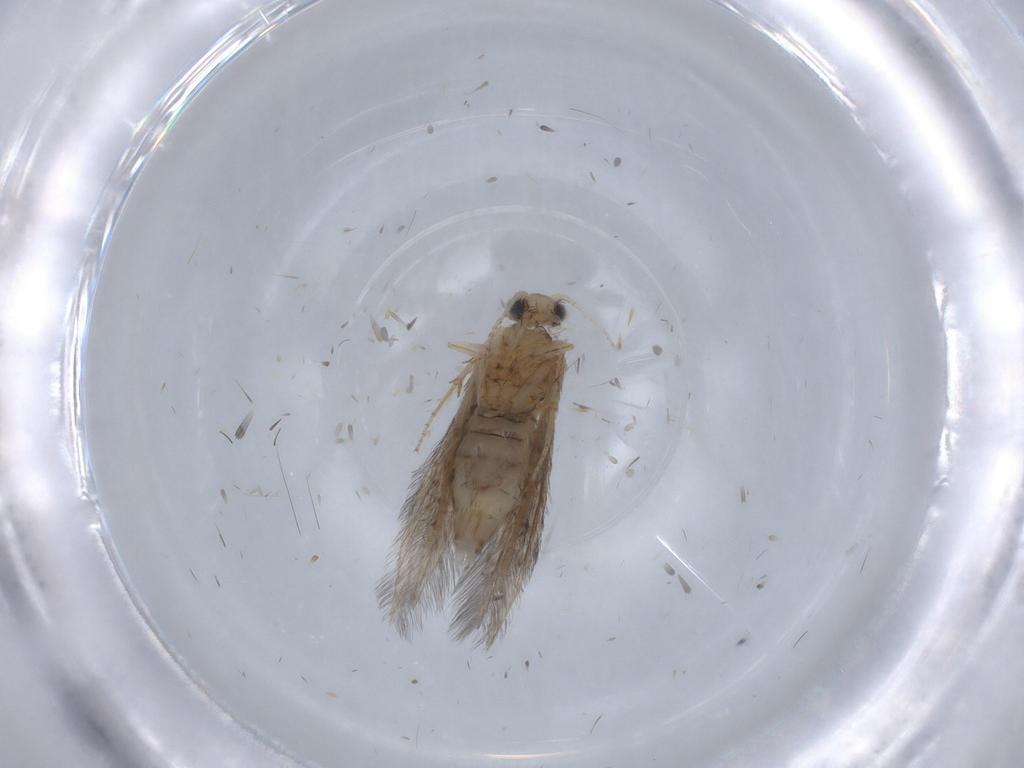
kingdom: Animalia
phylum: Arthropoda
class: Insecta
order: Trichoptera
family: Hydroptilidae
